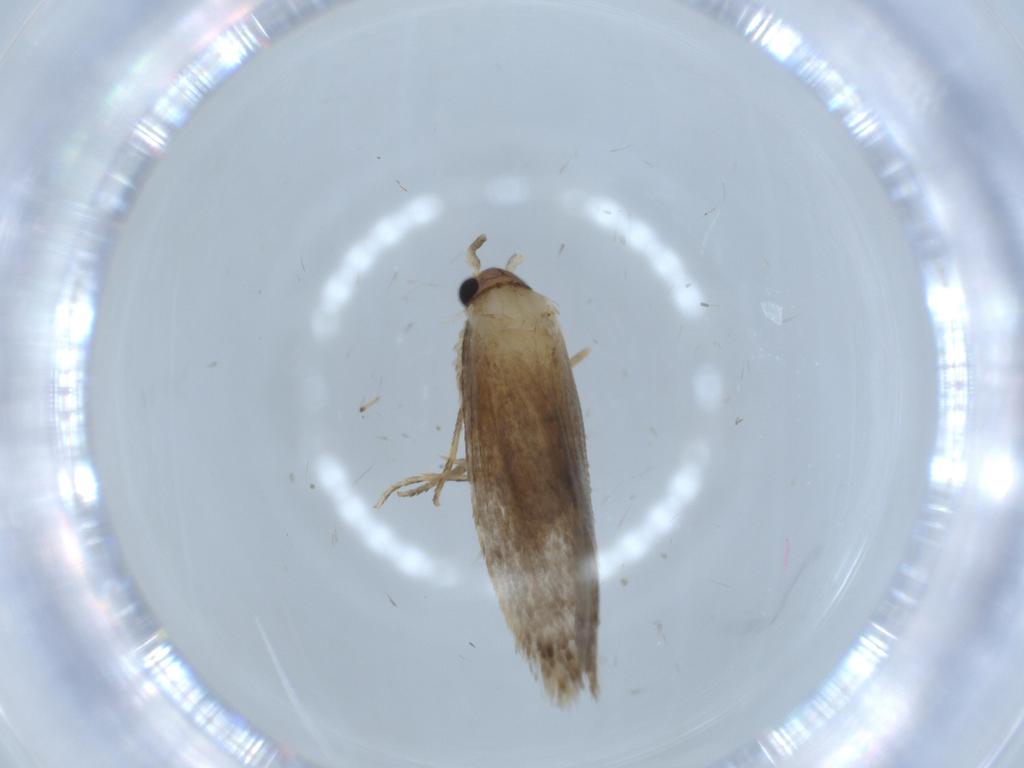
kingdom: Animalia
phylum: Arthropoda
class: Insecta
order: Lepidoptera
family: Tineidae
